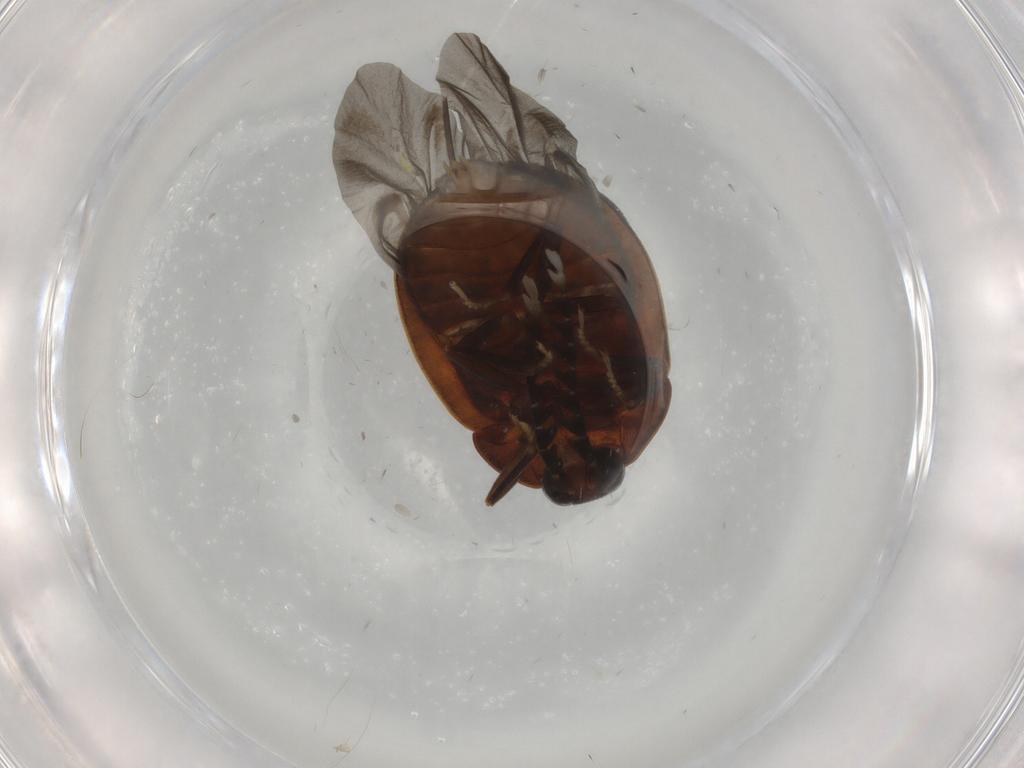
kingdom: Animalia
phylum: Arthropoda
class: Insecta
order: Coleoptera
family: Psephenidae
